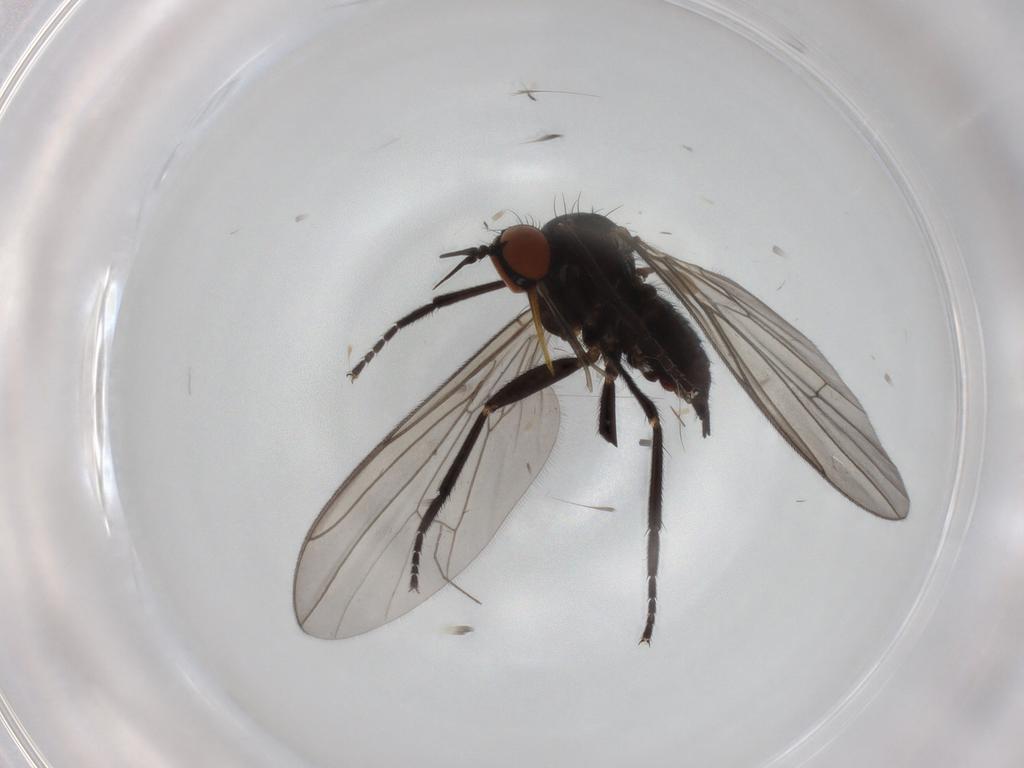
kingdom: Animalia
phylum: Arthropoda
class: Insecta
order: Diptera
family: Empididae
